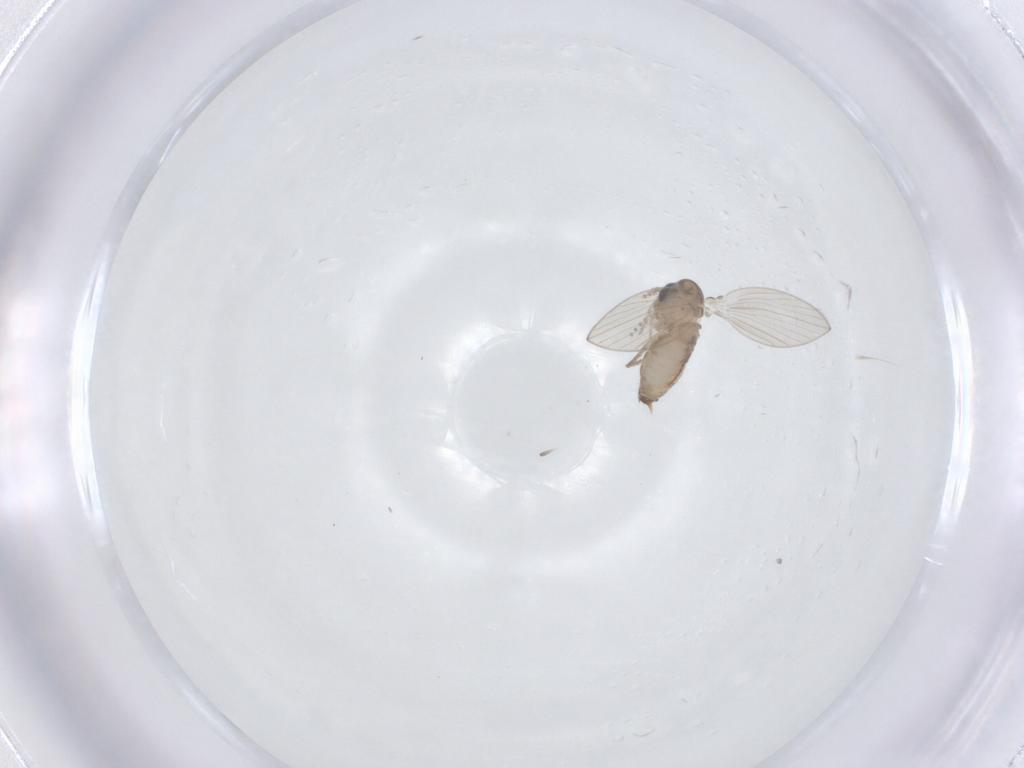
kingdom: Animalia
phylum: Arthropoda
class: Insecta
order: Diptera
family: Psychodidae
